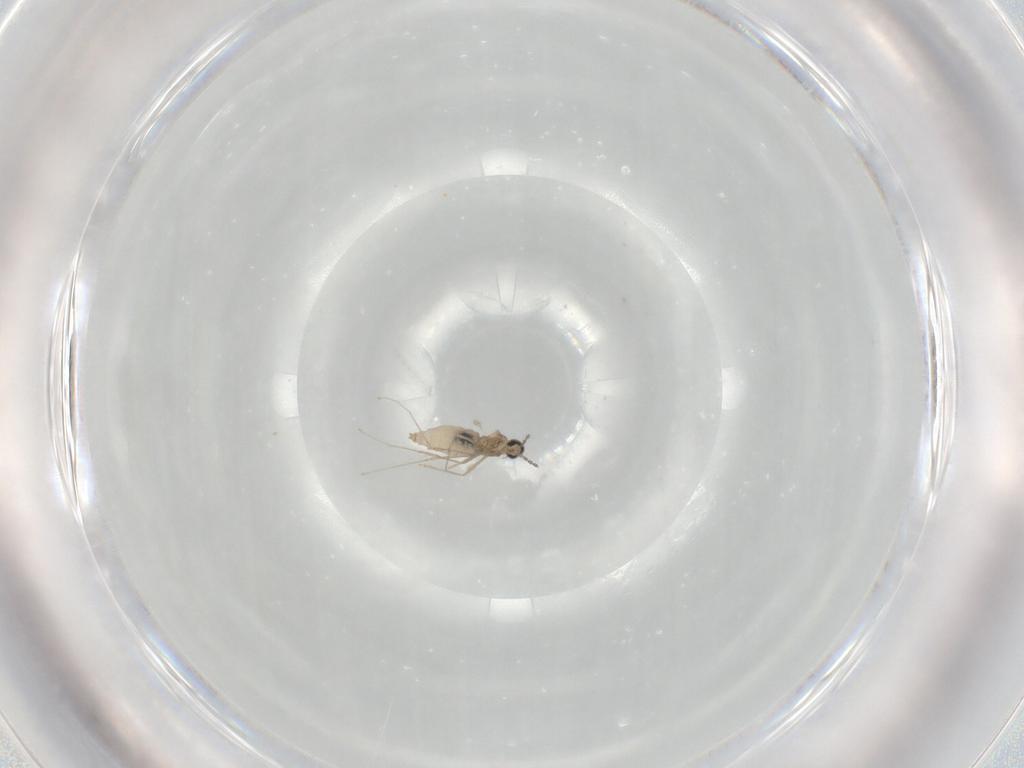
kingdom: Animalia
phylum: Arthropoda
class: Insecta
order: Diptera
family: Cecidomyiidae
